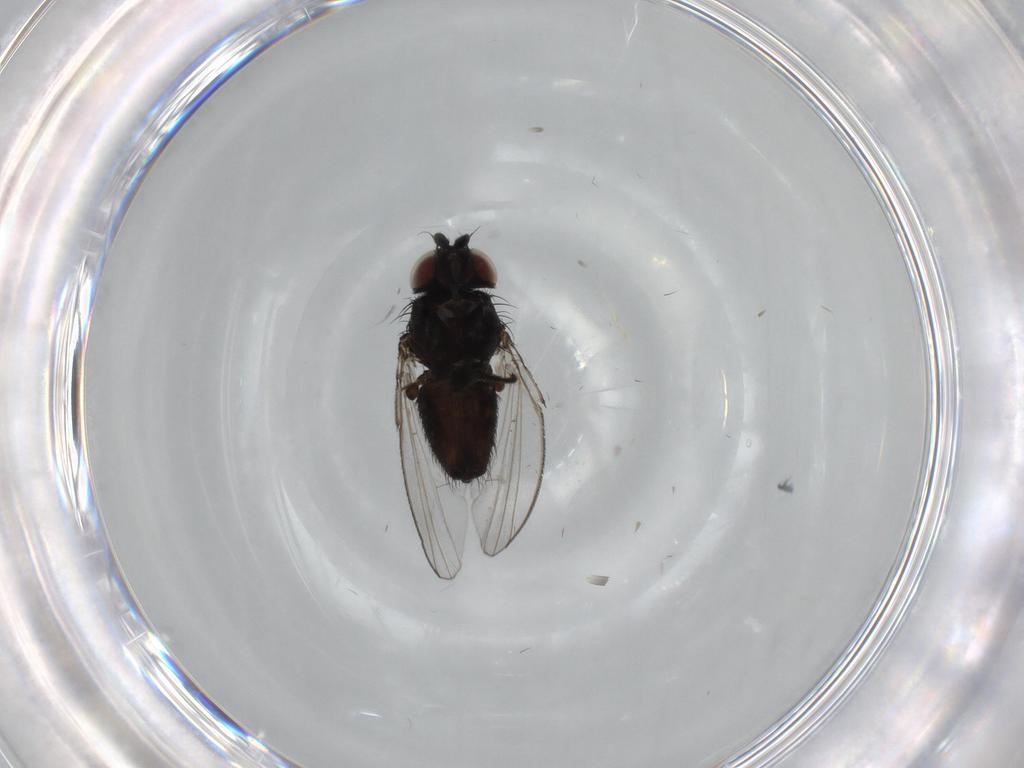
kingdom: Animalia
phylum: Arthropoda
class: Insecta
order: Diptera
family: Milichiidae
